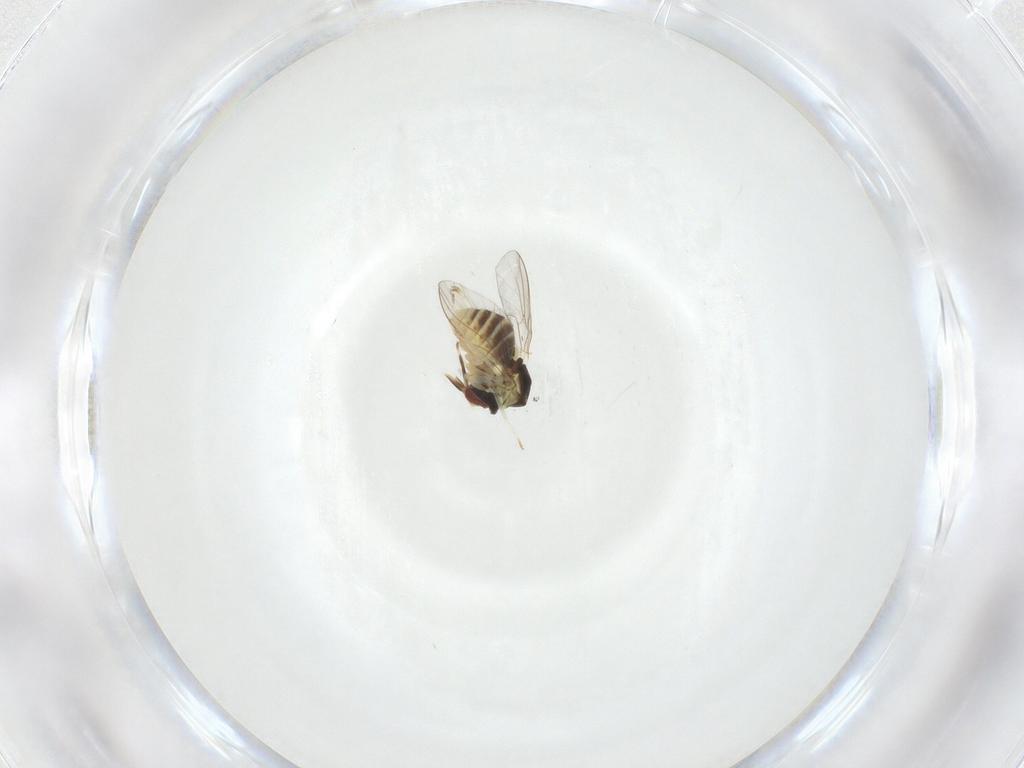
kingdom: Animalia
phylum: Arthropoda
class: Insecta
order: Diptera
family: Mythicomyiidae
